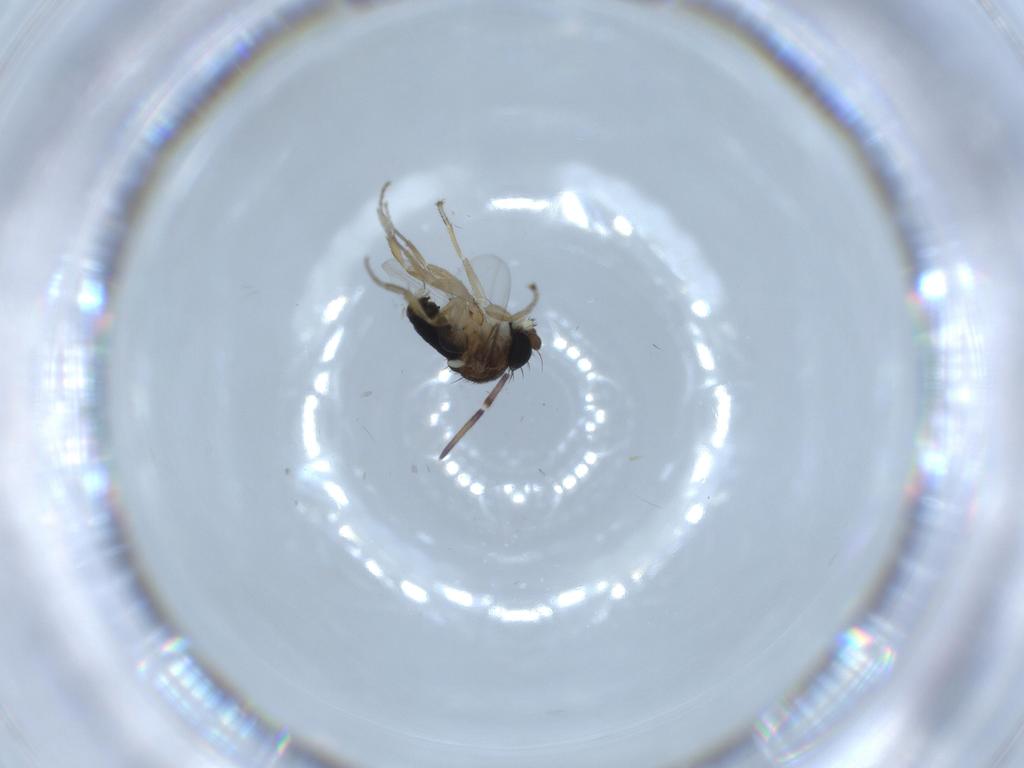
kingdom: Animalia
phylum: Arthropoda
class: Insecta
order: Diptera
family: Phoridae
